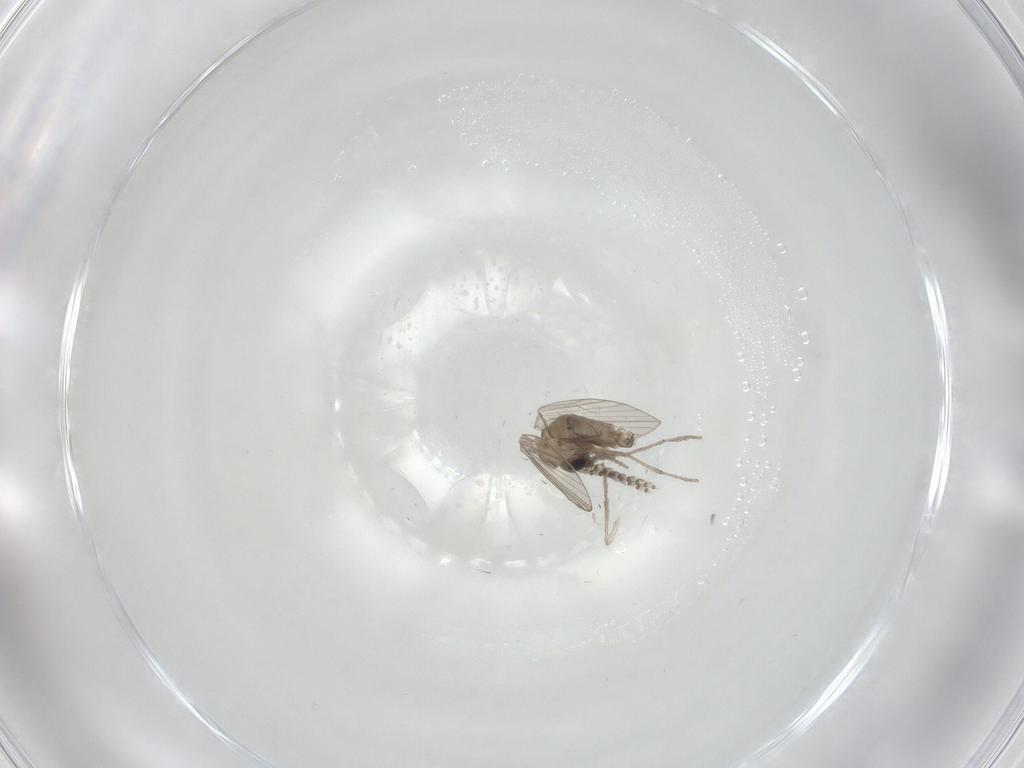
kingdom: Animalia
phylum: Arthropoda
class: Insecta
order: Diptera
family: Psychodidae
